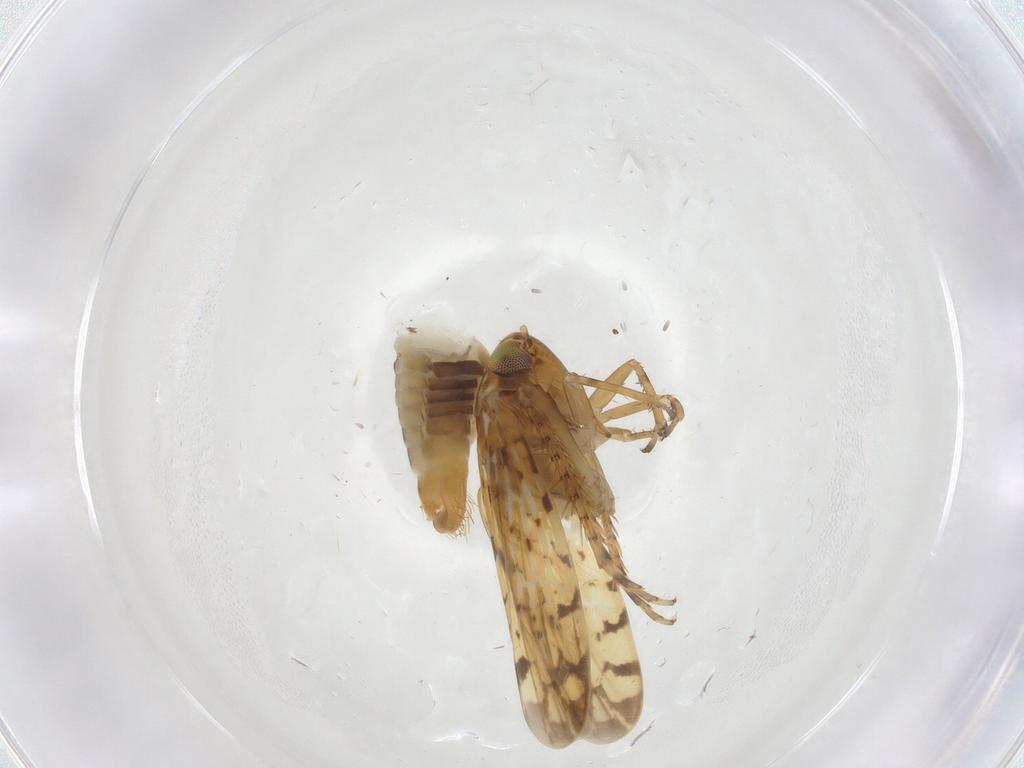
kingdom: Animalia
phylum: Arthropoda
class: Insecta
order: Hemiptera
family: Cicadellidae
